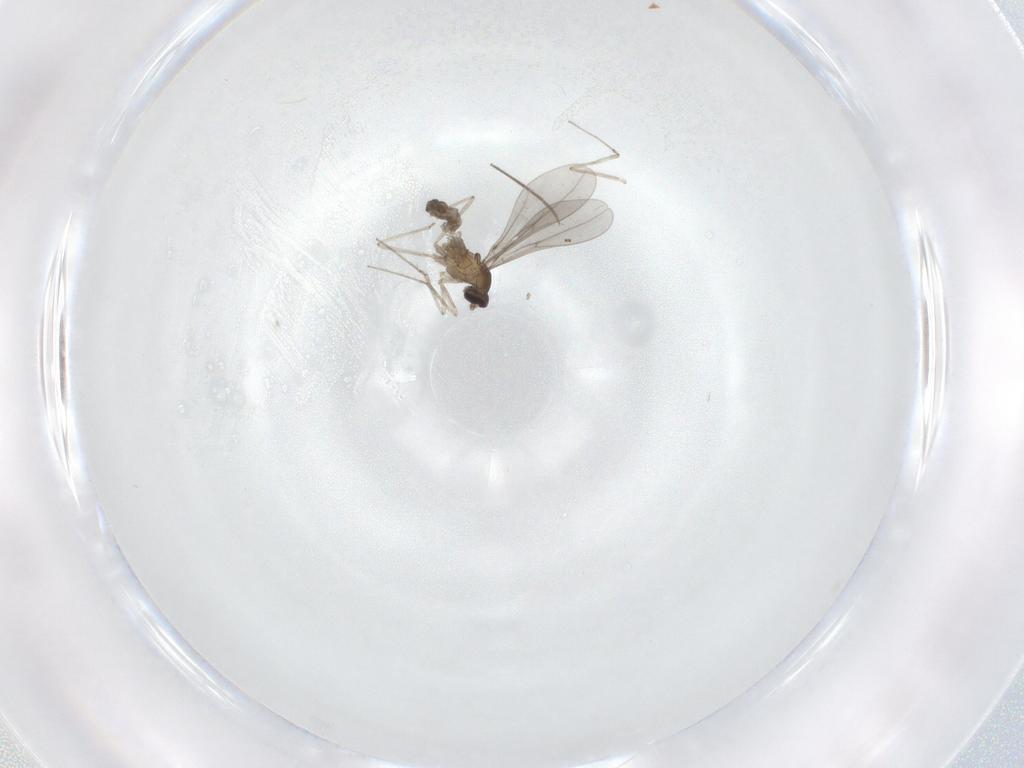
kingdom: Animalia
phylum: Arthropoda
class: Insecta
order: Diptera
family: Cecidomyiidae
